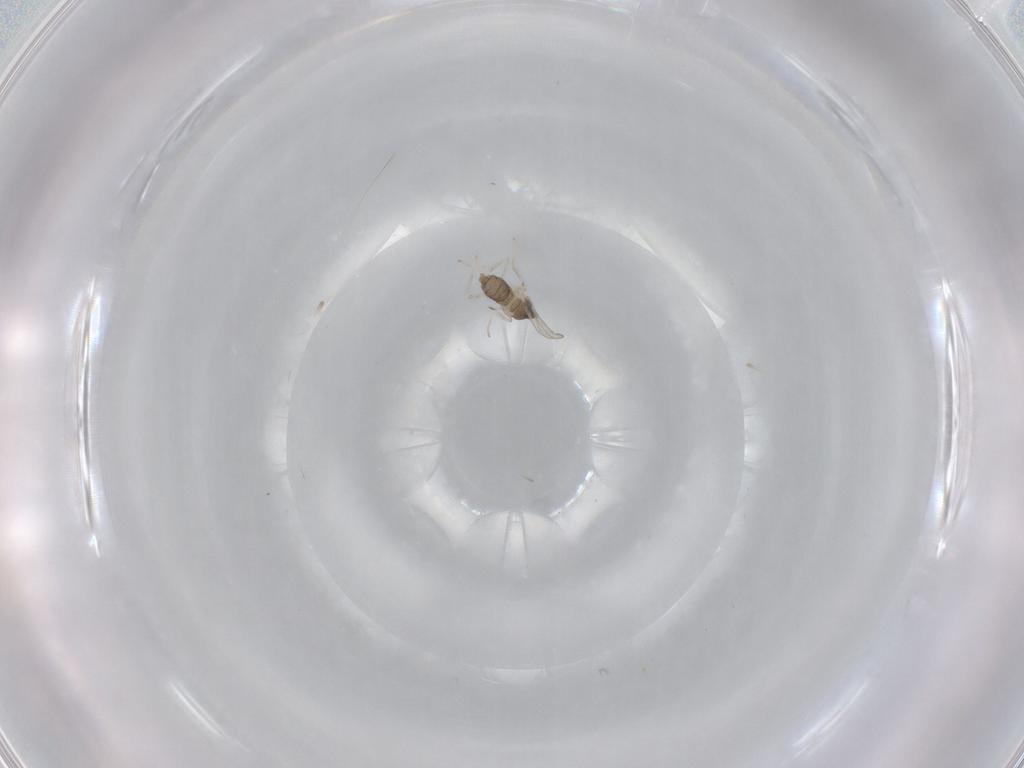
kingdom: Animalia
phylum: Arthropoda
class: Insecta
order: Diptera
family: Cecidomyiidae
